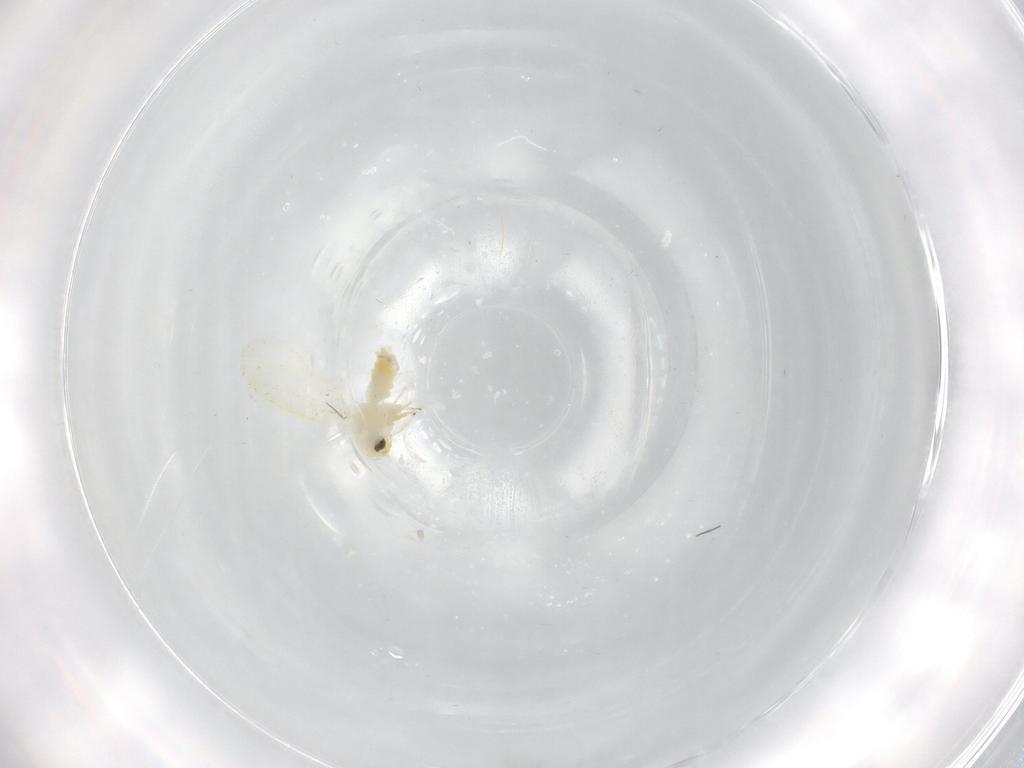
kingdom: Animalia
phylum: Arthropoda
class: Insecta
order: Hemiptera
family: Aleyrodidae
